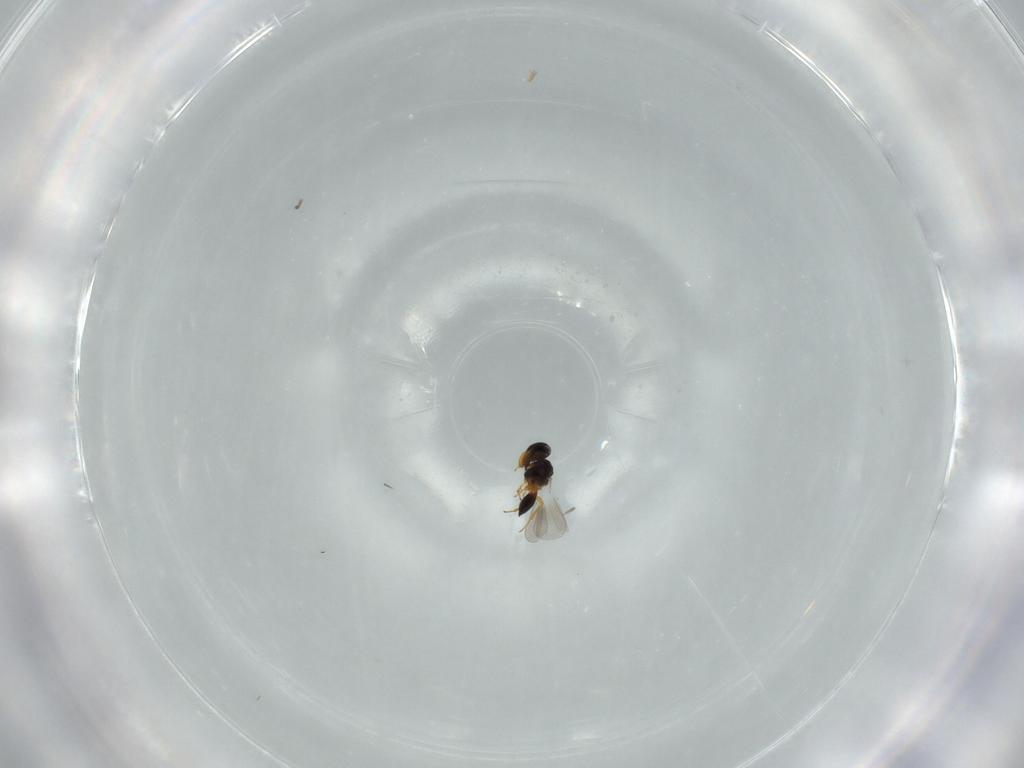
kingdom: Animalia
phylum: Arthropoda
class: Insecta
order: Hymenoptera
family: Platygastridae
